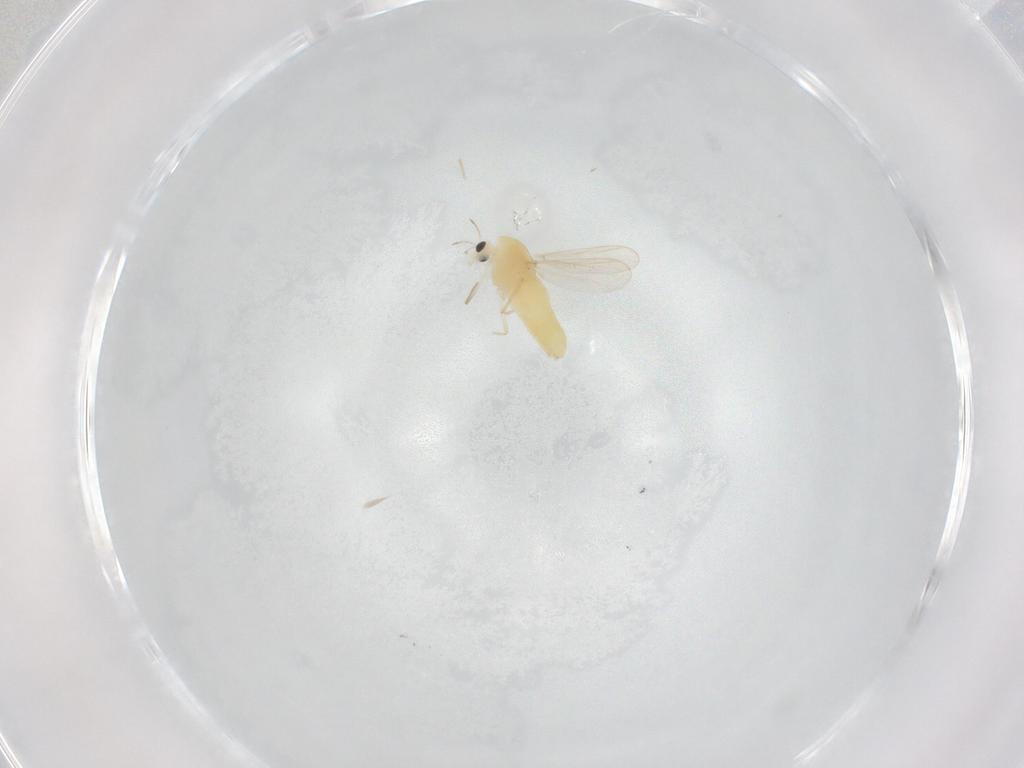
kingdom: Animalia
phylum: Arthropoda
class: Insecta
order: Diptera
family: Chironomidae
